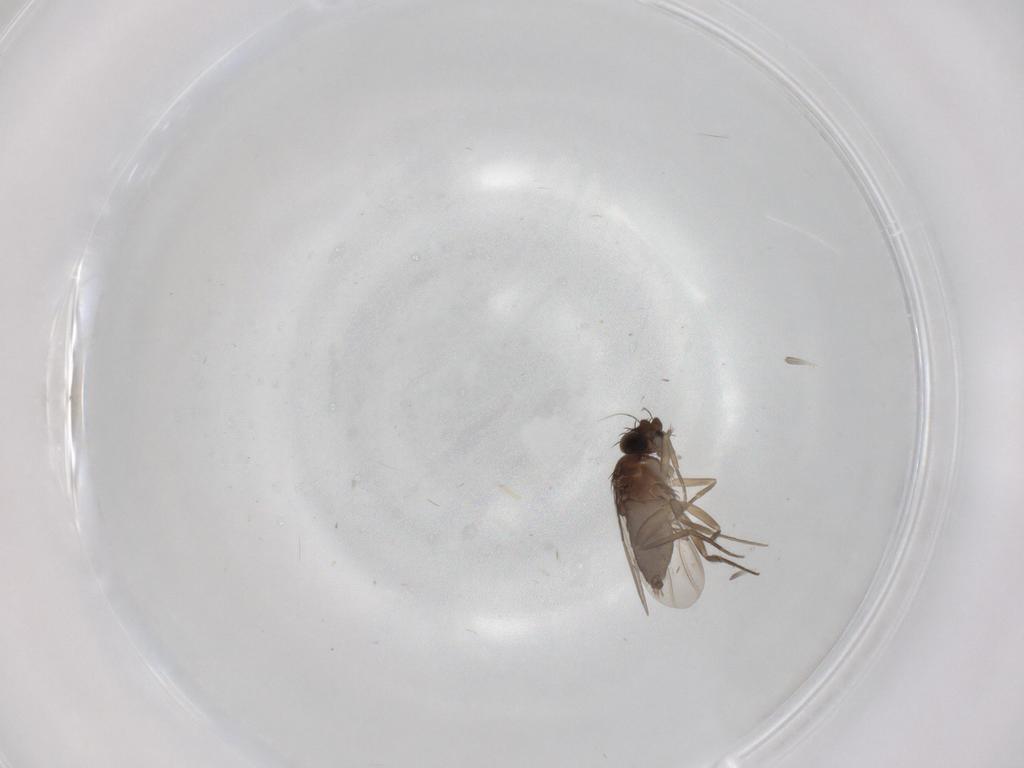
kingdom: Animalia
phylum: Arthropoda
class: Insecta
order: Diptera
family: Phoridae
